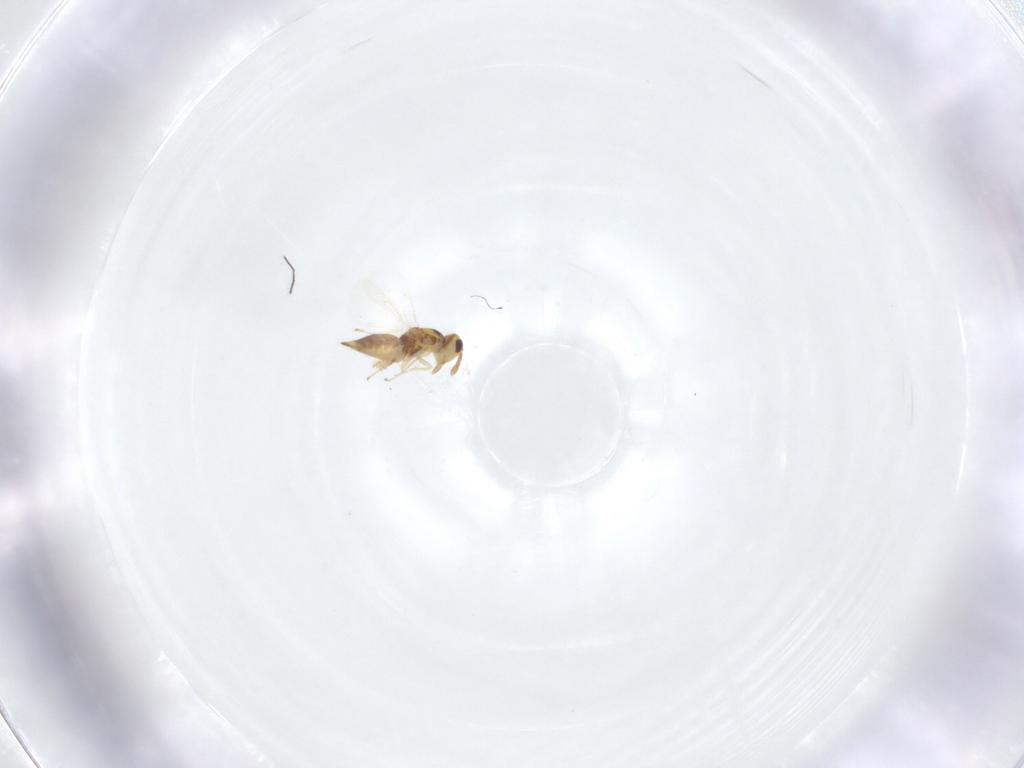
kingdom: Animalia
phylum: Arthropoda
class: Insecta
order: Hymenoptera
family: Eulophidae
